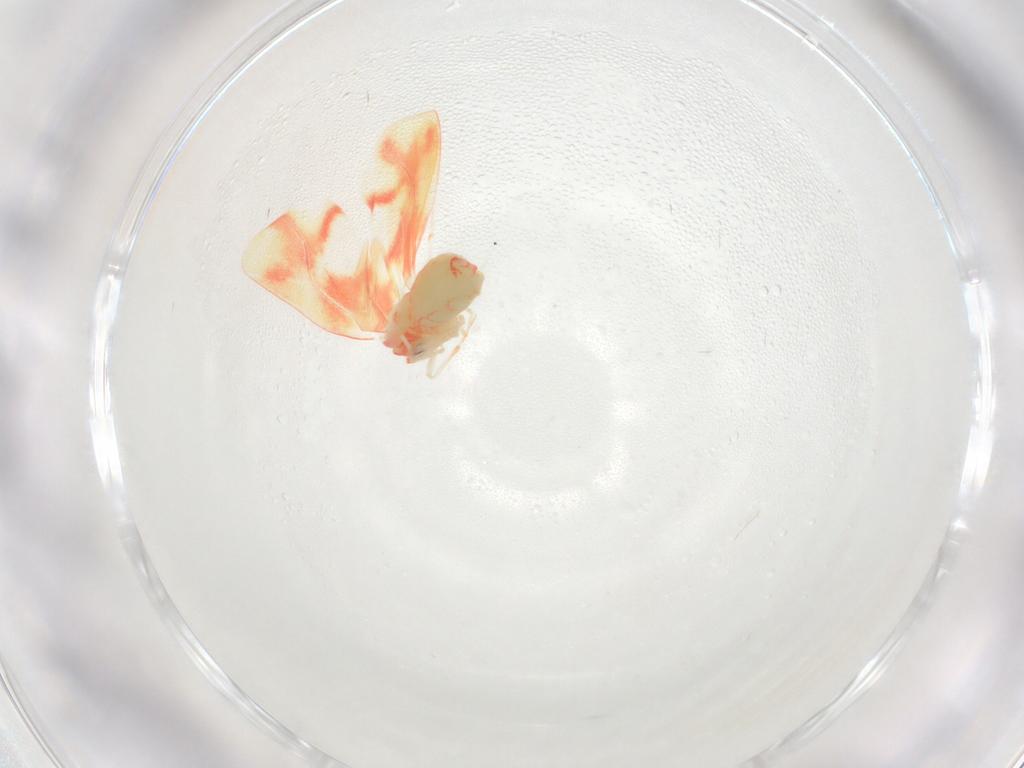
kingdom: Animalia
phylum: Arthropoda
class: Insecta
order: Hemiptera
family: Aleyrodidae
